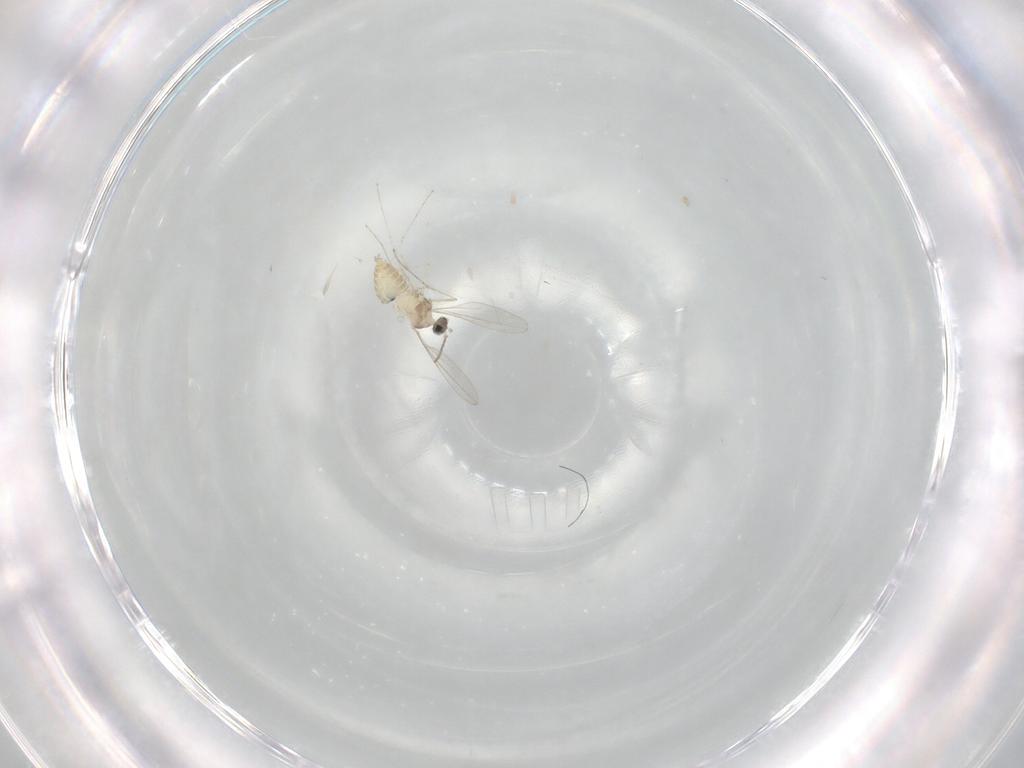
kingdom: Animalia
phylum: Arthropoda
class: Insecta
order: Diptera
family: Cecidomyiidae
